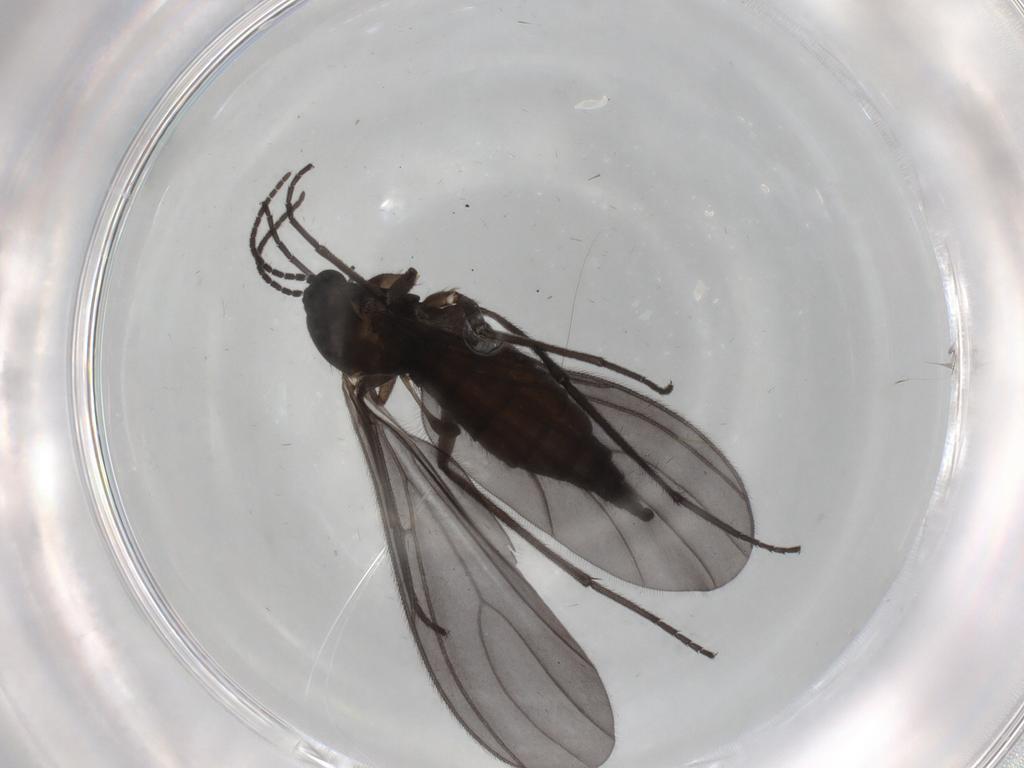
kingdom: Animalia
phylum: Arthropoda
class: Insecta
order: Diptera
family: Sciaridae
